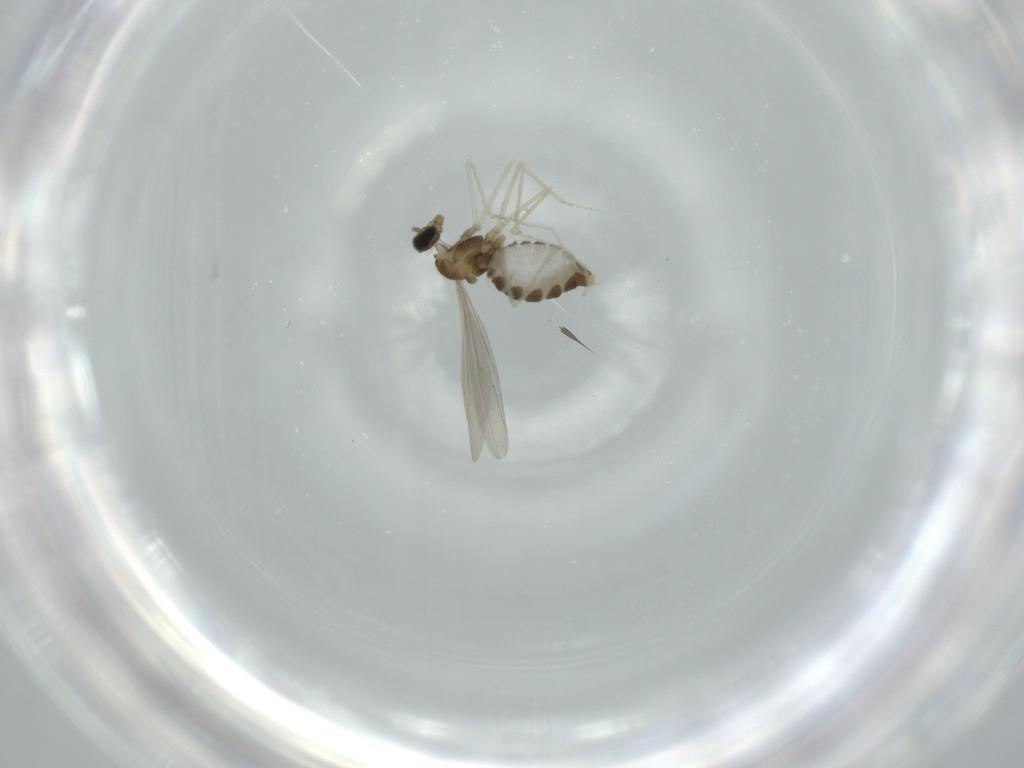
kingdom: Animalia
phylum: Arthropoda
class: Insecta
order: Diptera
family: Cecidomyiidae
